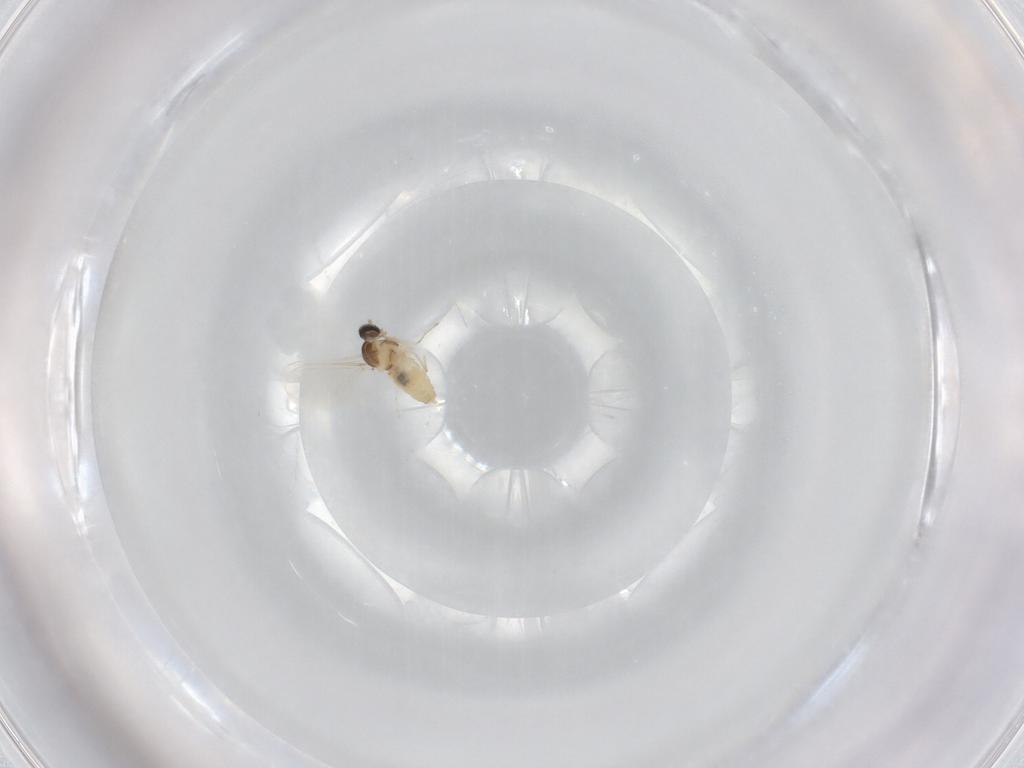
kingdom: Animalia
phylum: Arthropoda
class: Insecta
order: Diptera
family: Cecidomyiidae
